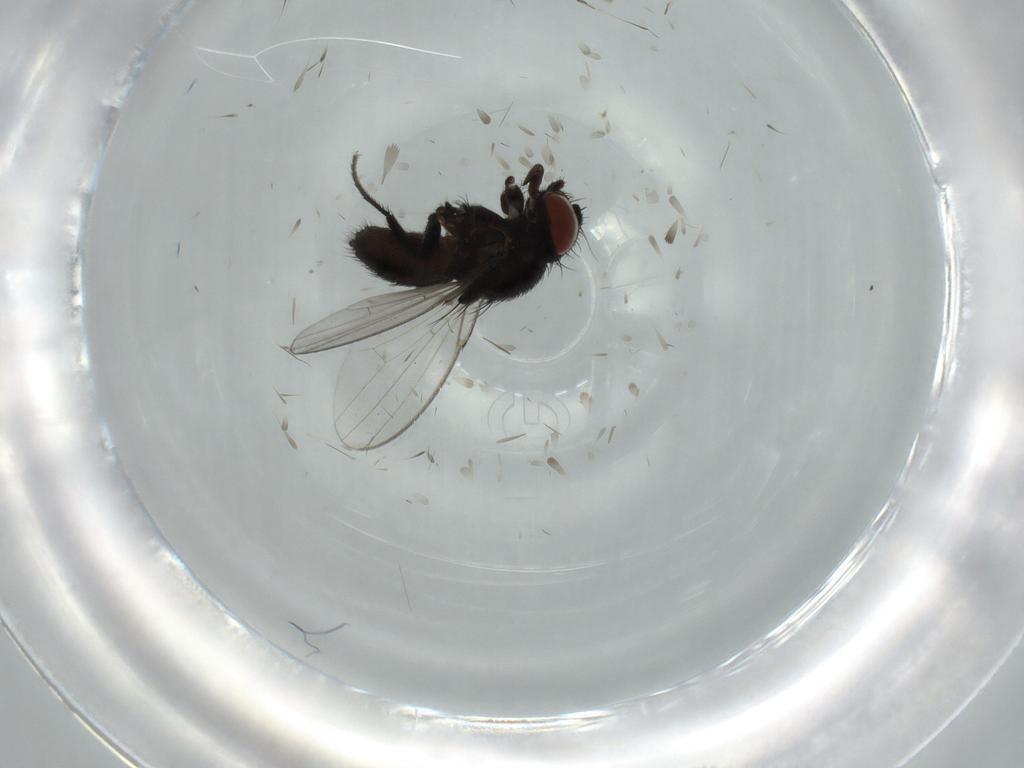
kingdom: Animalia
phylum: Arthropoda
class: Insecta
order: Diptera
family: Milichiidae
